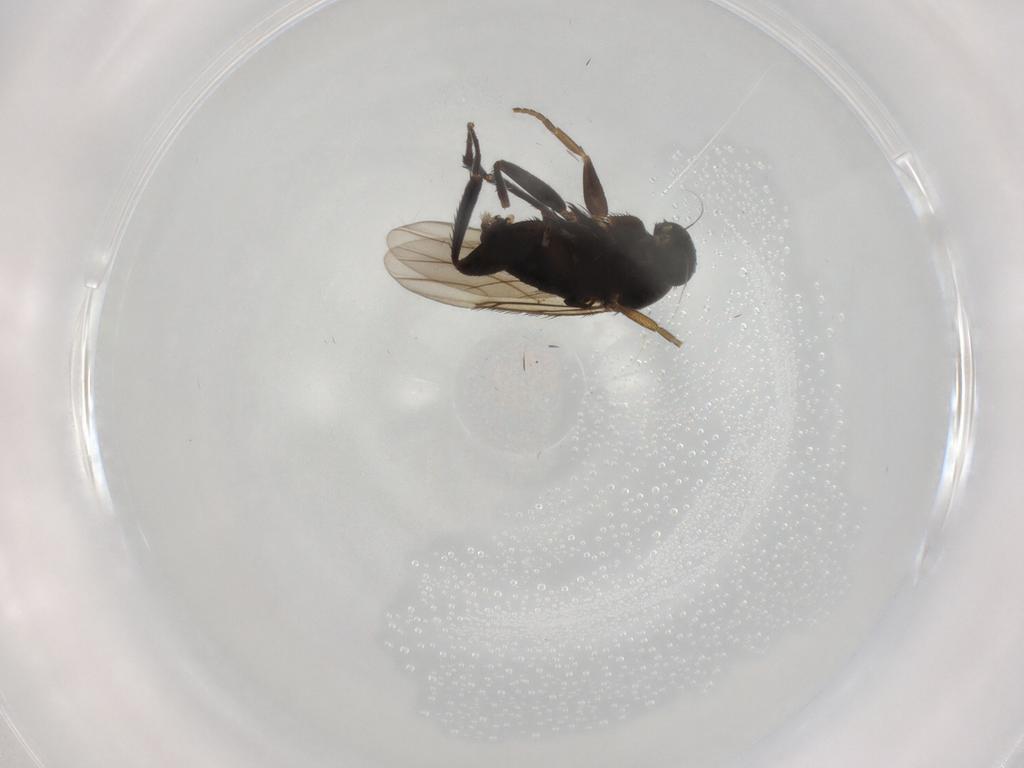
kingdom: Animalia
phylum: Arthropoda
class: Insecta
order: Diptera
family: Phoridae
